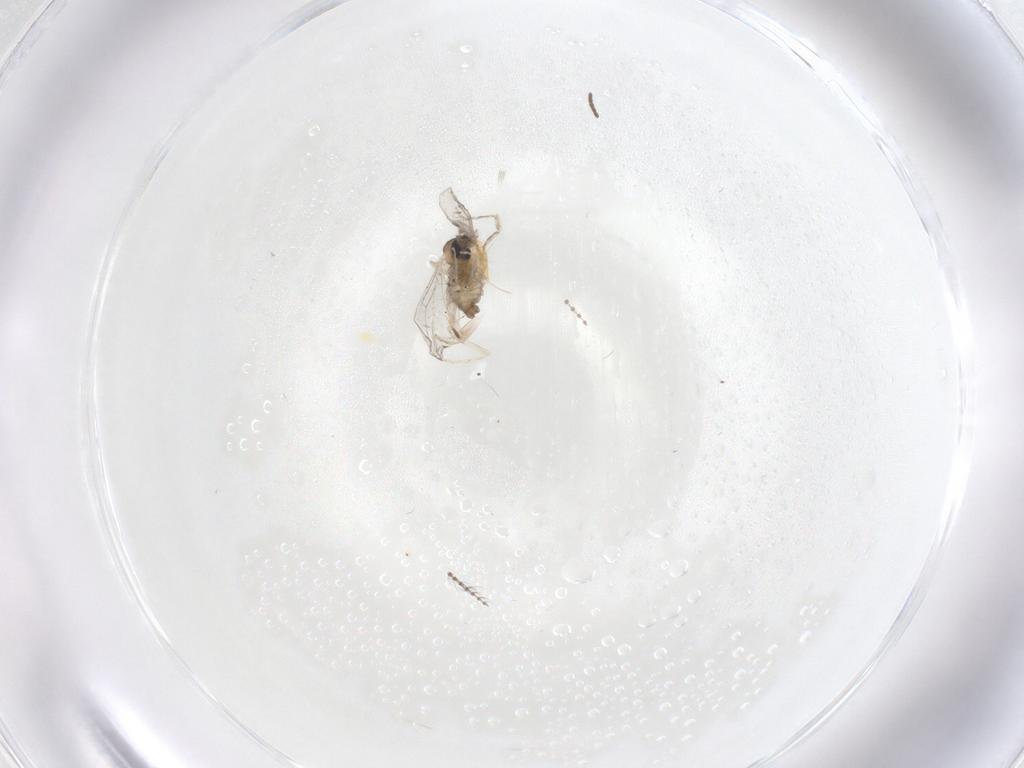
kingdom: Animalia
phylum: Arthropoda
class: Insecta
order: Diptera
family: Cecidomyiidae
